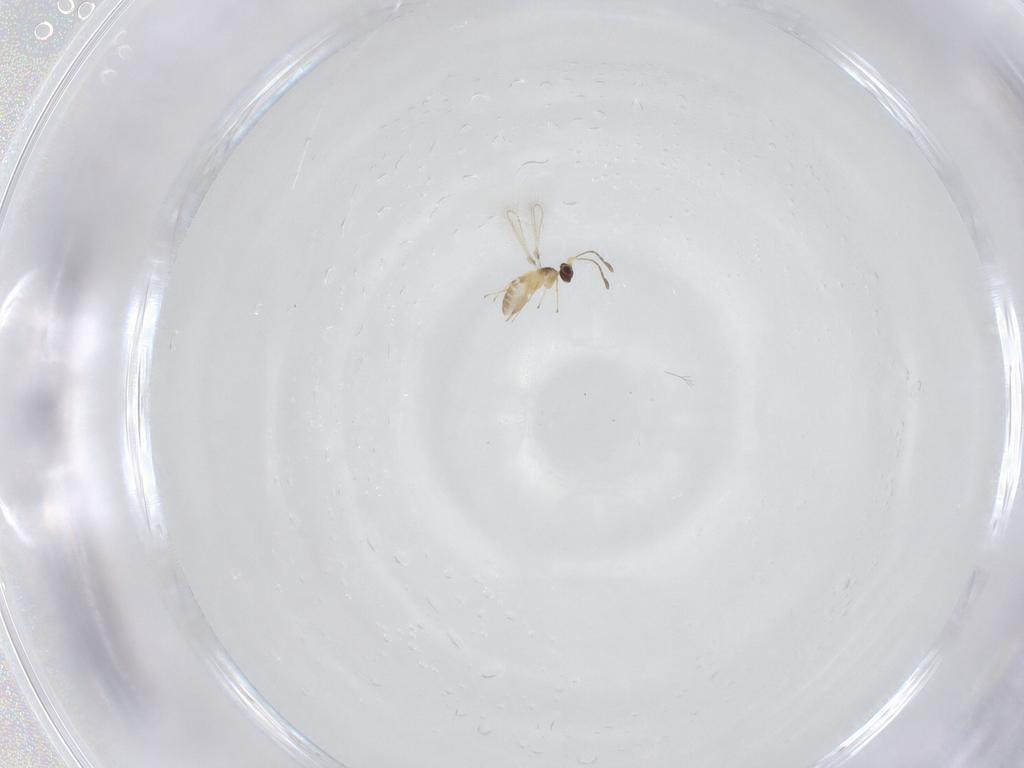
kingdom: Animalia
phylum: Arthropoda
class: Insecta
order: Hymenoptera
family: Mymaridae
